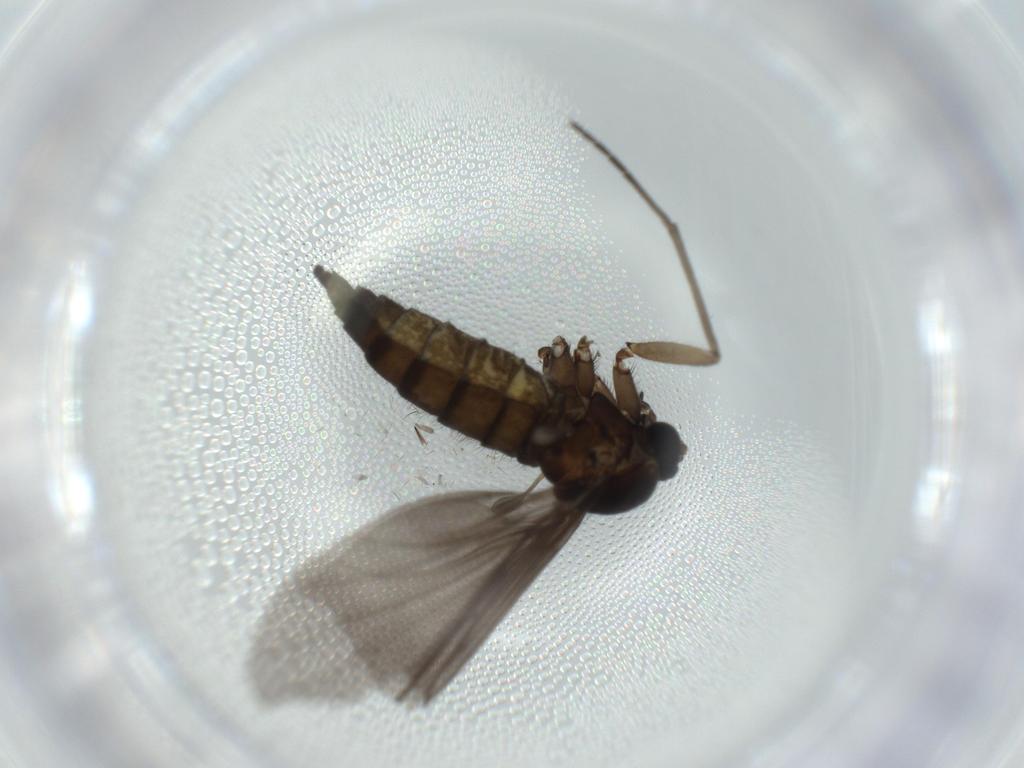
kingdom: Animalia
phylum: Arthropoda
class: Insecta
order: Diptera
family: Sciaridae
